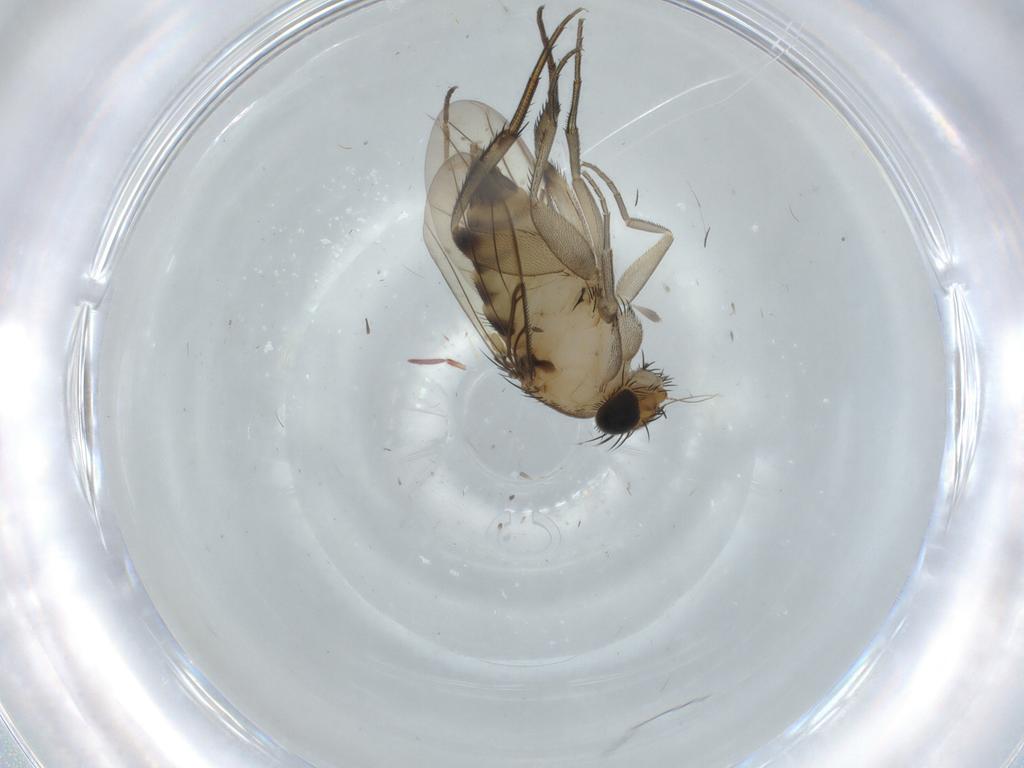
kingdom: Animalia
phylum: Arthropoda
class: Insecta
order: Diptera
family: Phoridae
